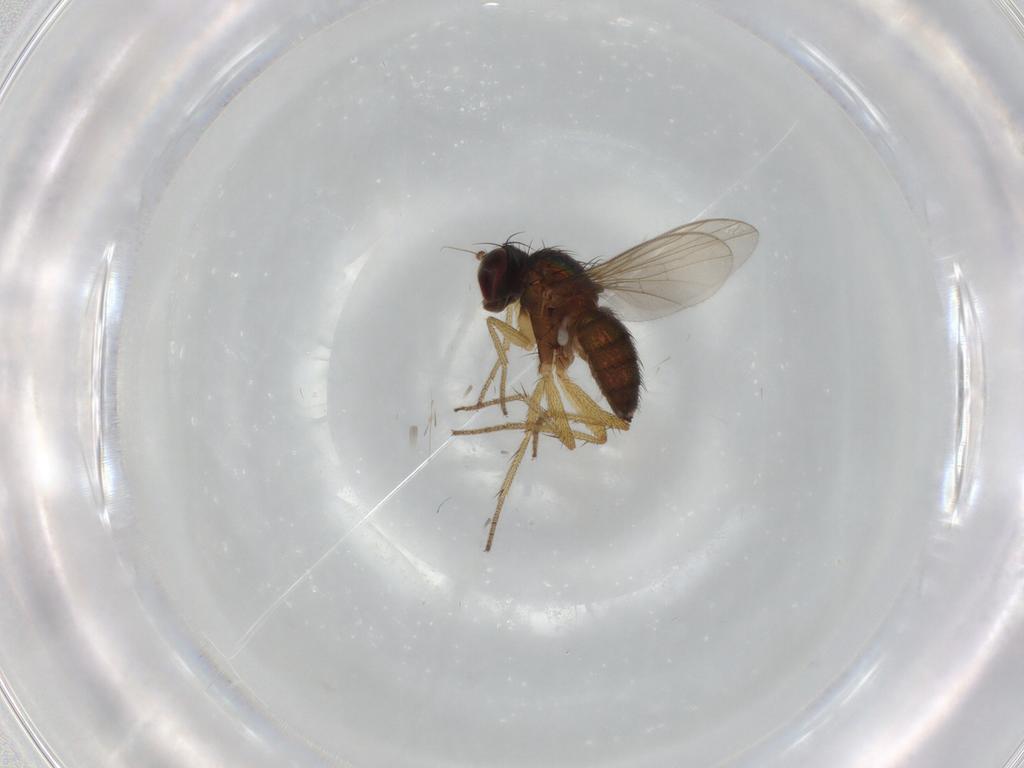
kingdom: Animalia
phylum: Arthropoda
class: Insecta
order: Diptera
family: Dolichopodidae
